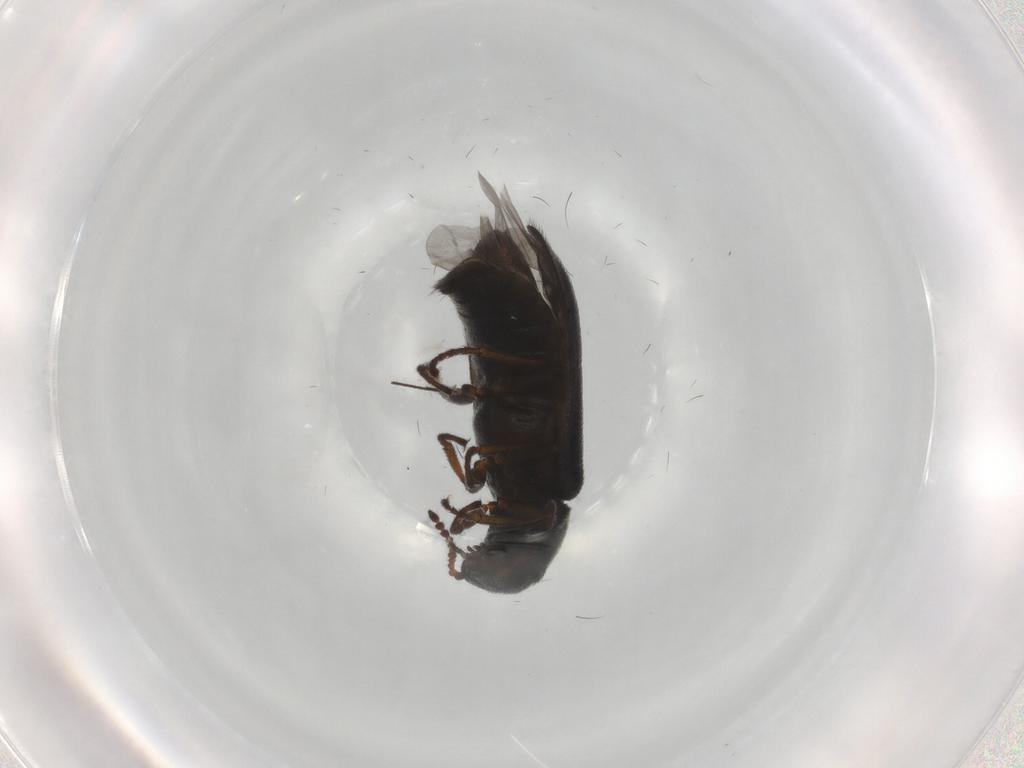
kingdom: Animalia
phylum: Arthropoda
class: Insecta
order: Coleoptera
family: Melyridae
